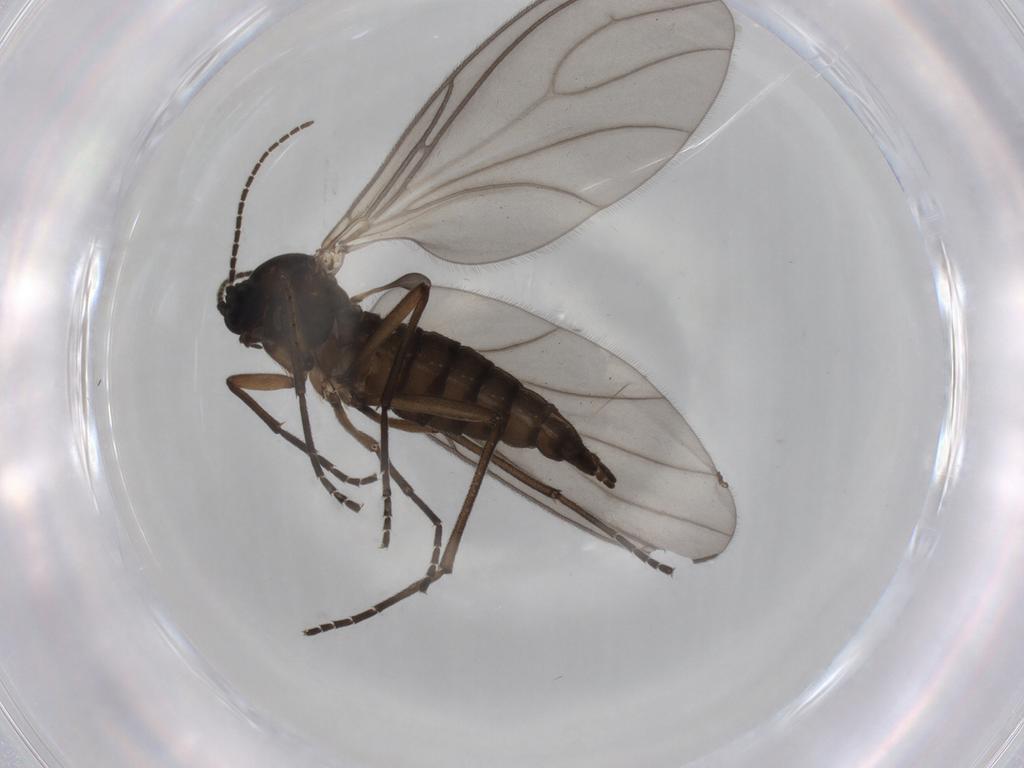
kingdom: Animalia
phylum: Arthropoda
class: Insecta
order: Diptera
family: Sciaridae
